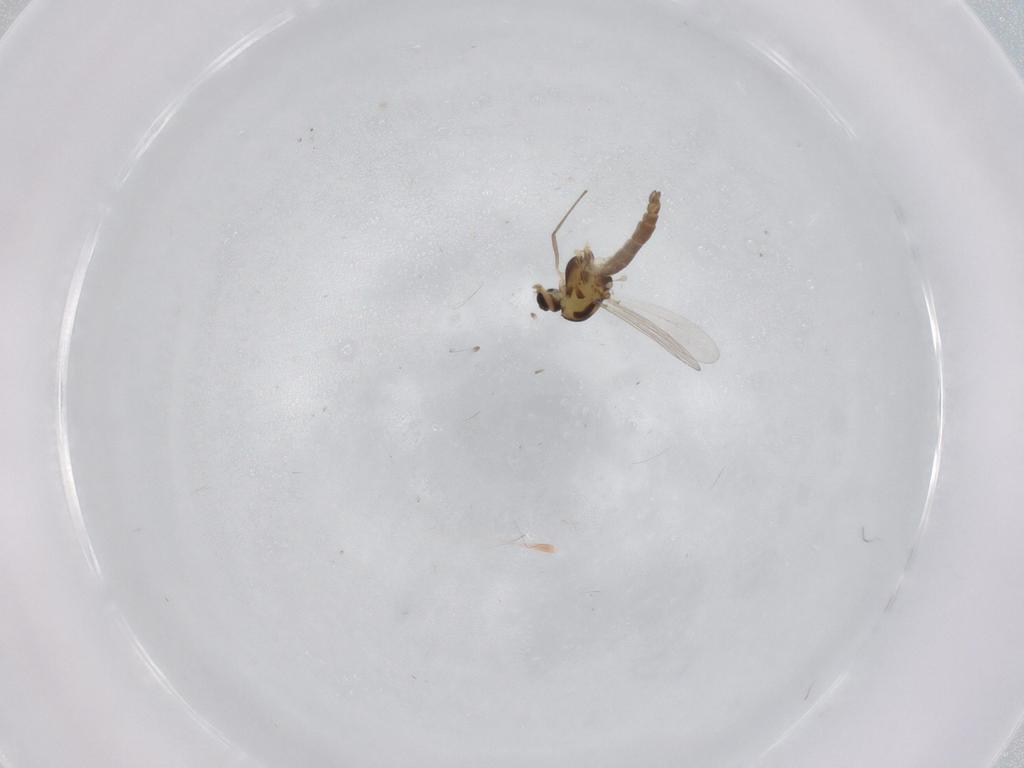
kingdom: Animalia
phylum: Arthropoda
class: Insecta
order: Diptera
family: Chironomidae
